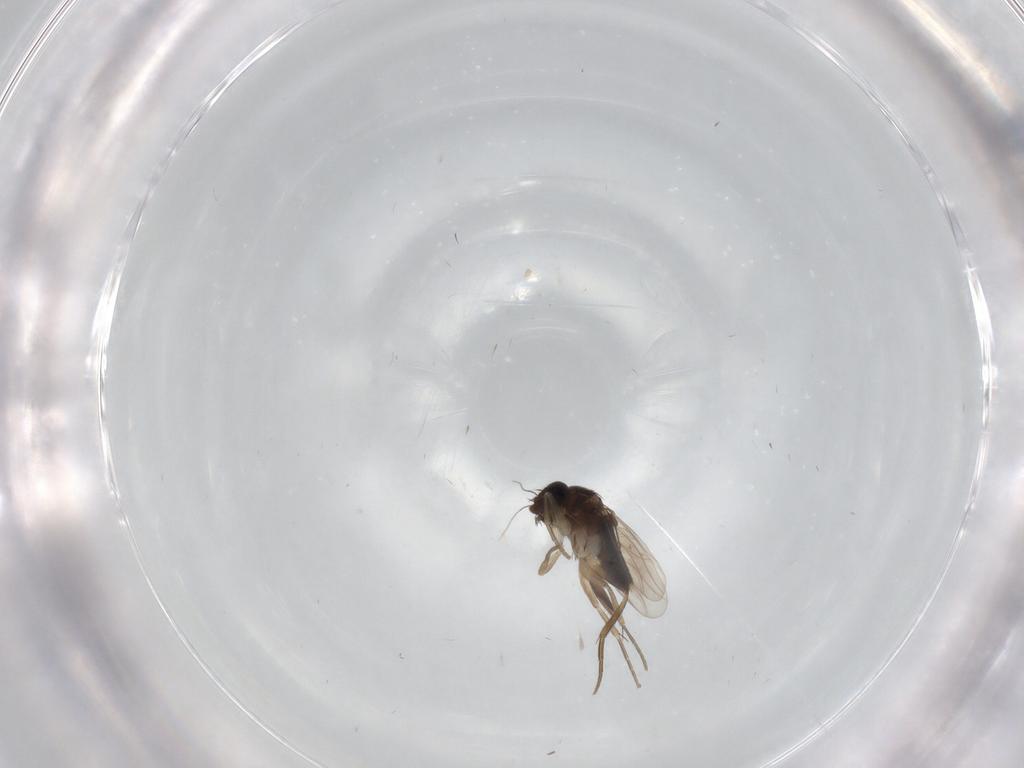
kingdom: Animalia
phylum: Arthropoda
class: Insecta
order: Diptera
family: Phoridae
